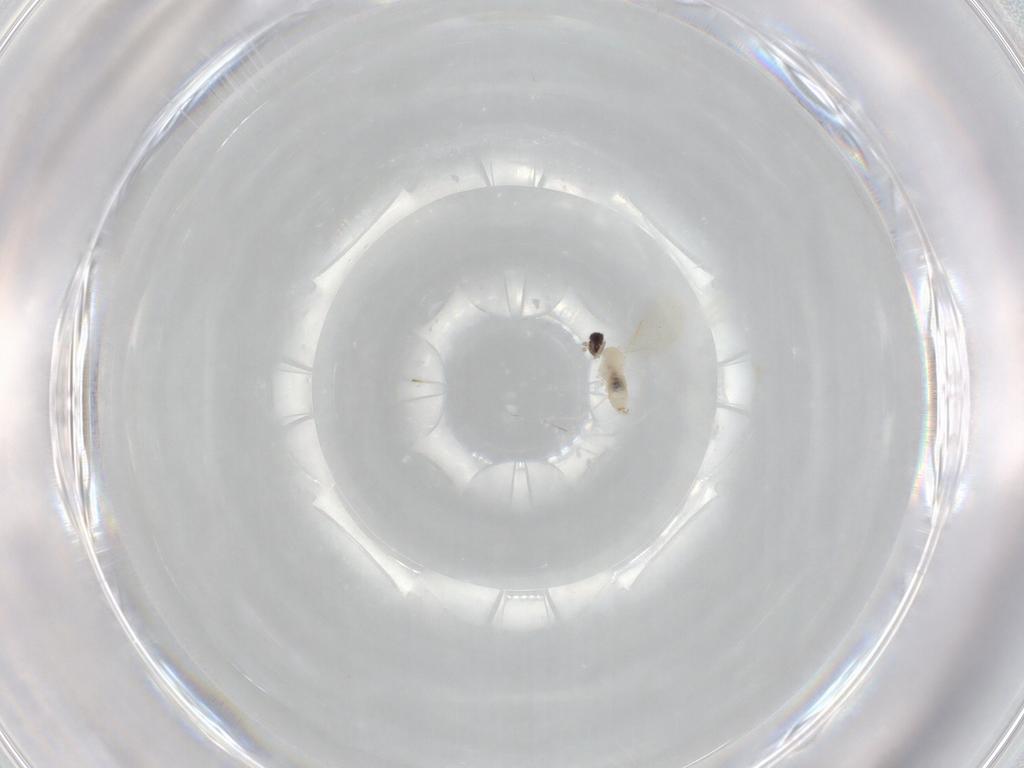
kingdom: Animalia
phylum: Arthropoda
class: Insecta
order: Diptera
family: Ceratopogonidae
